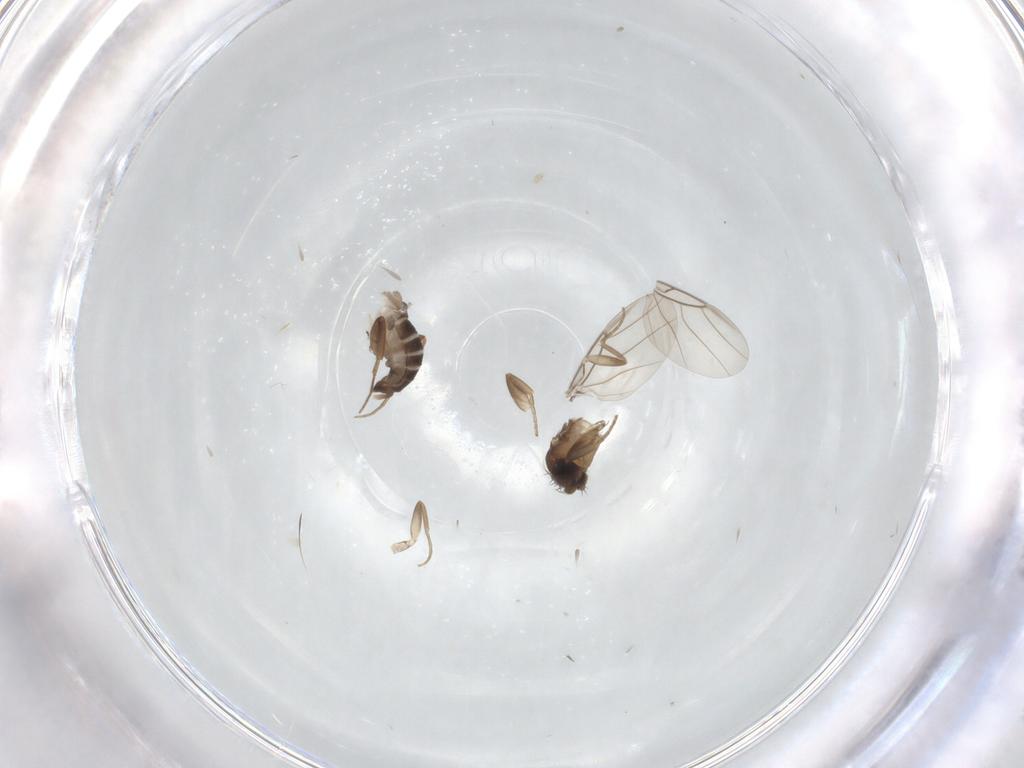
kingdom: Animalia
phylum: Arthropoda
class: Insecta
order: Diptera
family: Phoridae
